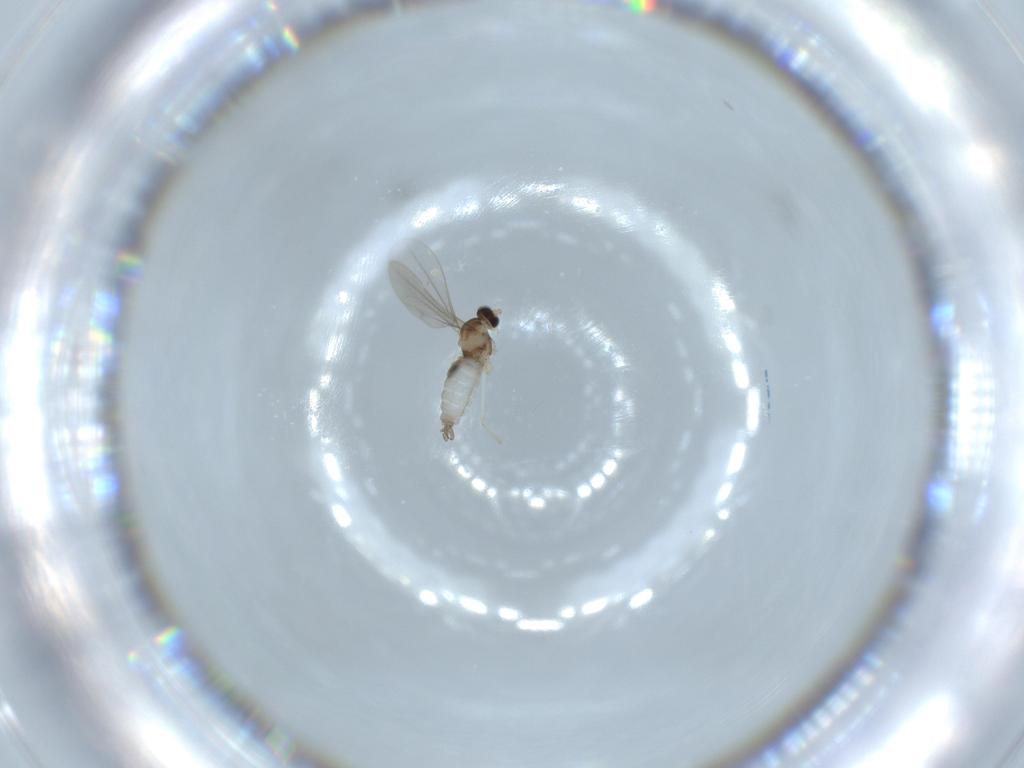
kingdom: Animalia
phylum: Arthropoda
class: Insecta
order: Diptera
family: Cecidomyiidae
